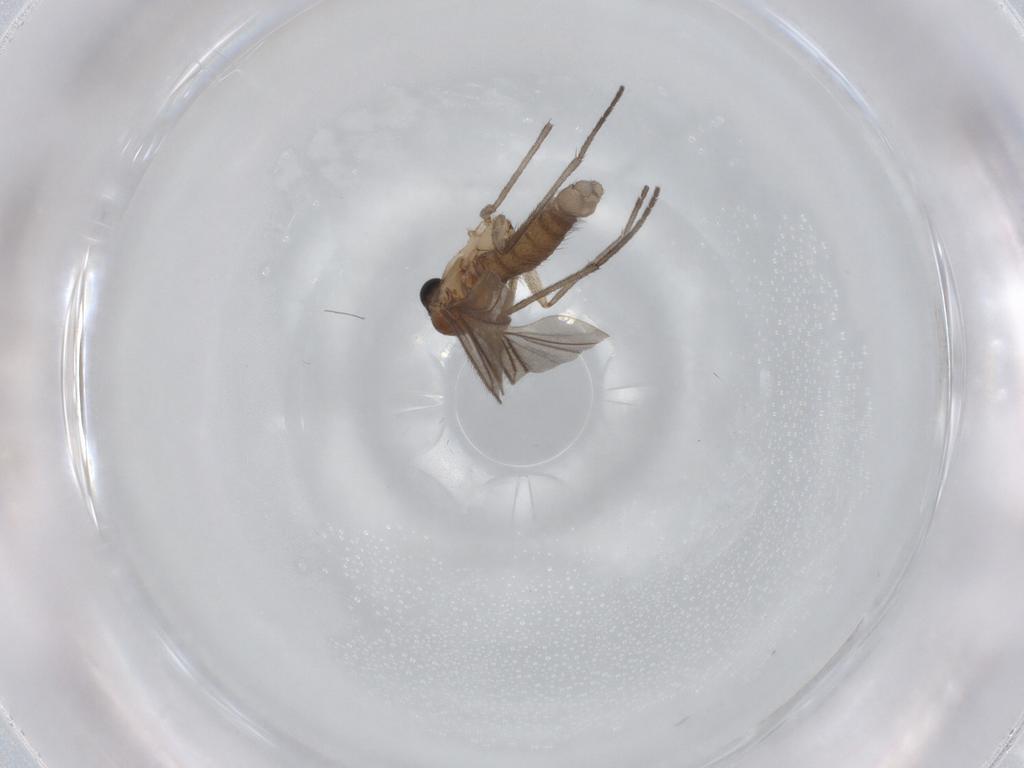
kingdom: Animalia
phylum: Arthropoda
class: Insecta
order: Diptera
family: Sciaridae
